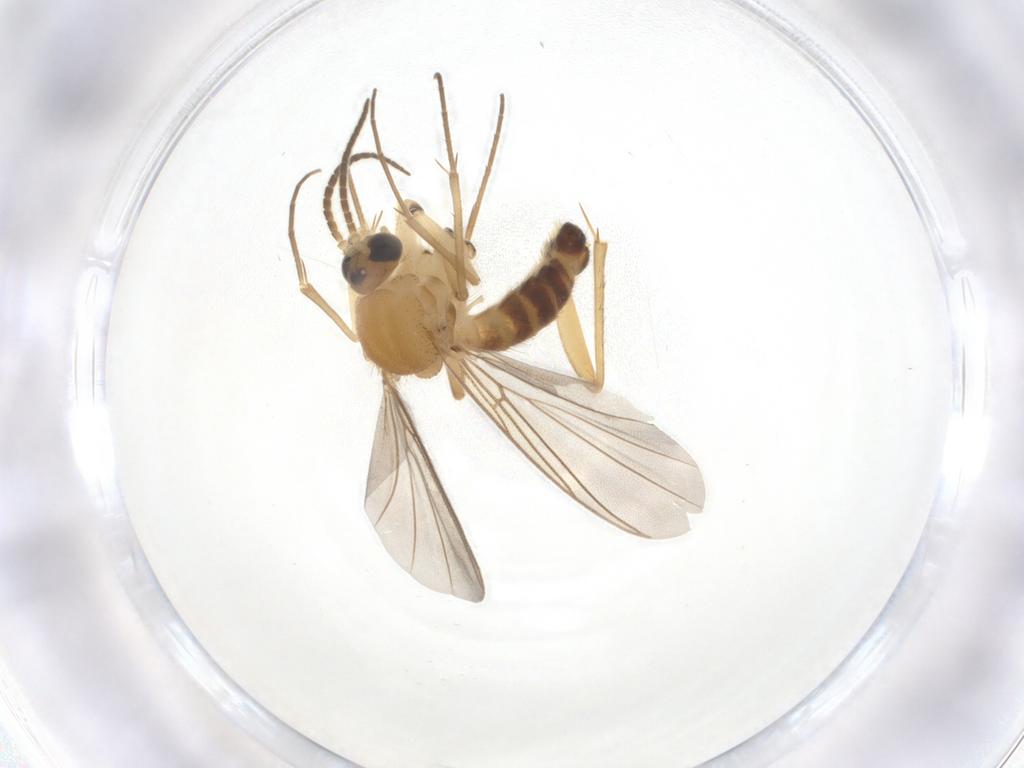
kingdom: Animalia
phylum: Arthropoda
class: Insecta
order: Diptera
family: Mycetophilidae
